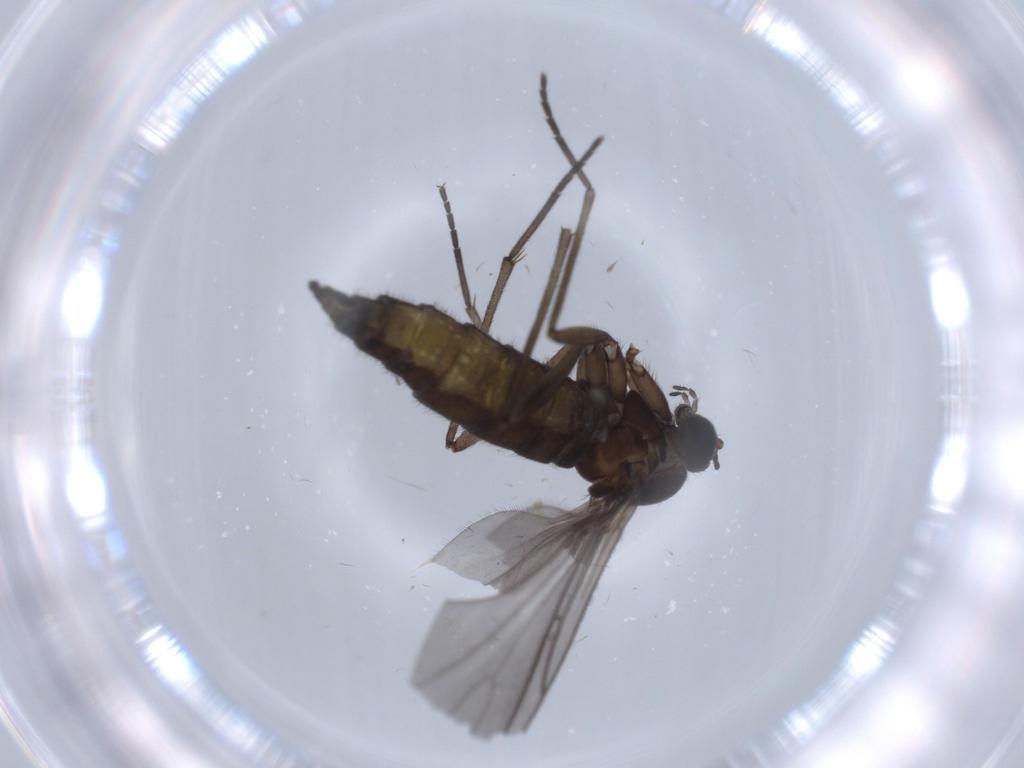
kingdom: Animalia
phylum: Arthropoda
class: Insecta
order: Diptera
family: Sciaridae
